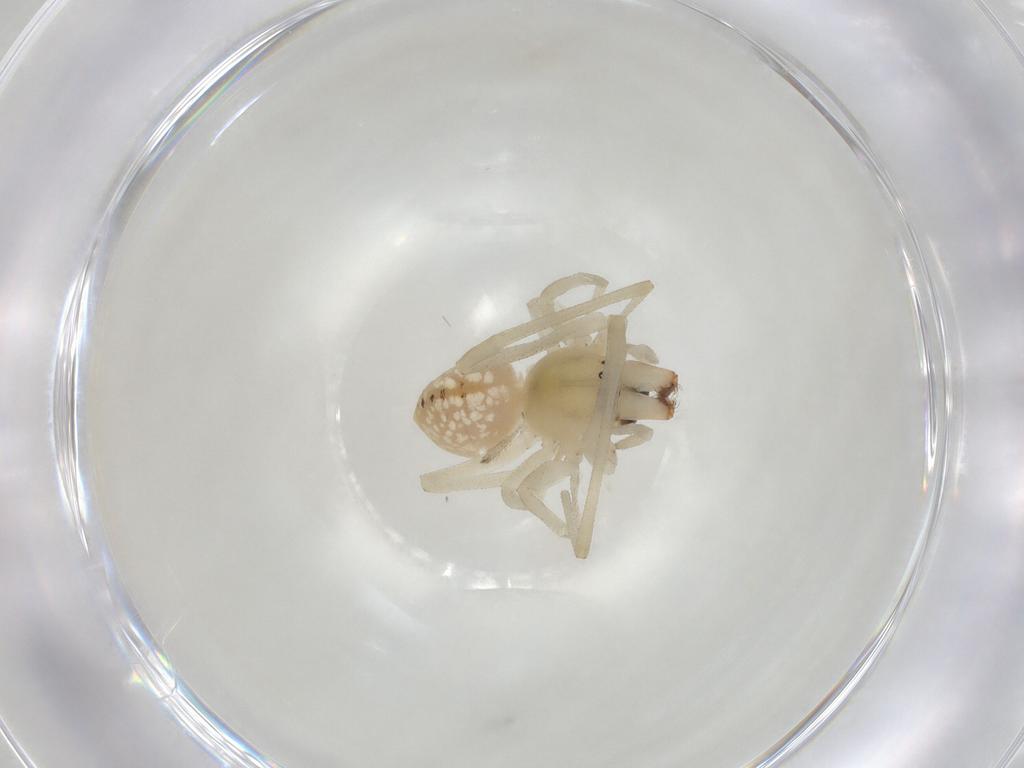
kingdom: Animalia
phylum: Arthropoda
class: Arachnida
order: Araneae
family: Cheiracanthiidae
